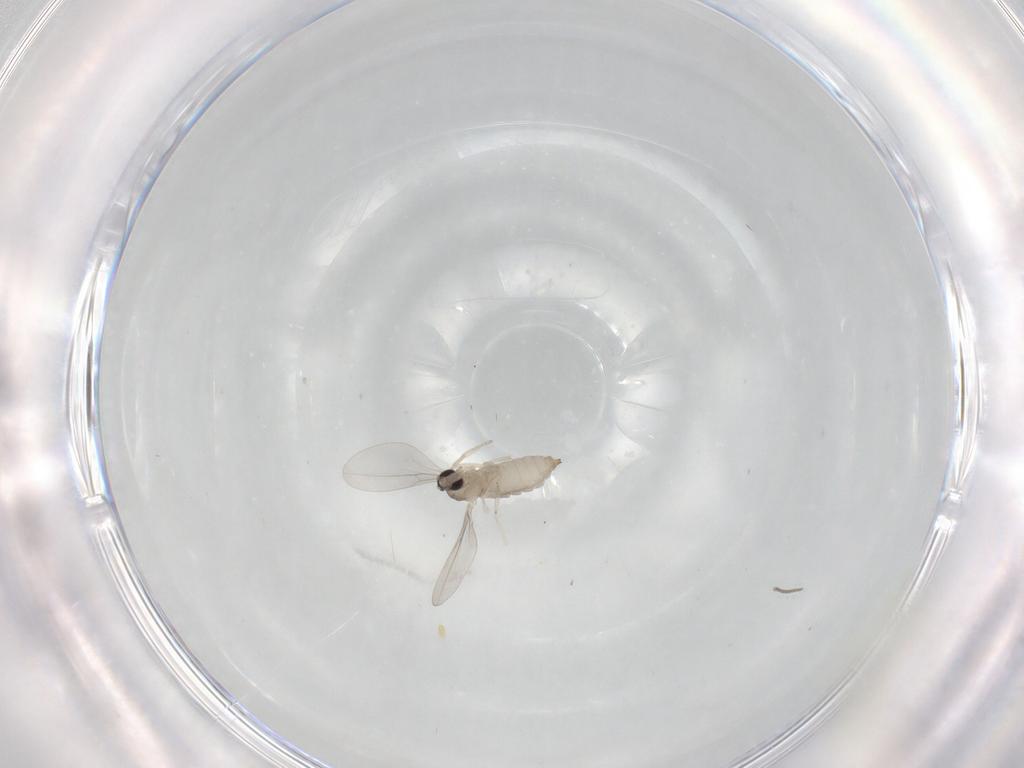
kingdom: Animalia
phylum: Arthropoda
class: Insecta
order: Diptera
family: Cecidomyiidae
